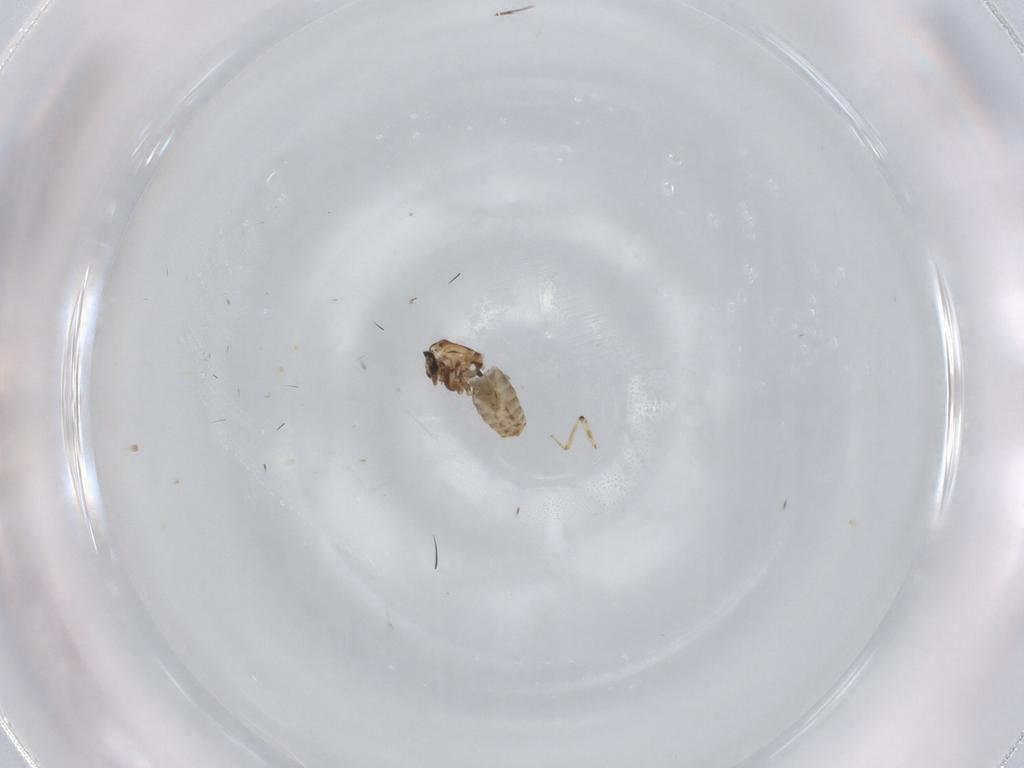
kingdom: Animalia
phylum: Arthropoda
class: Insecta
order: Diptera
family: Ceratopogonidae
